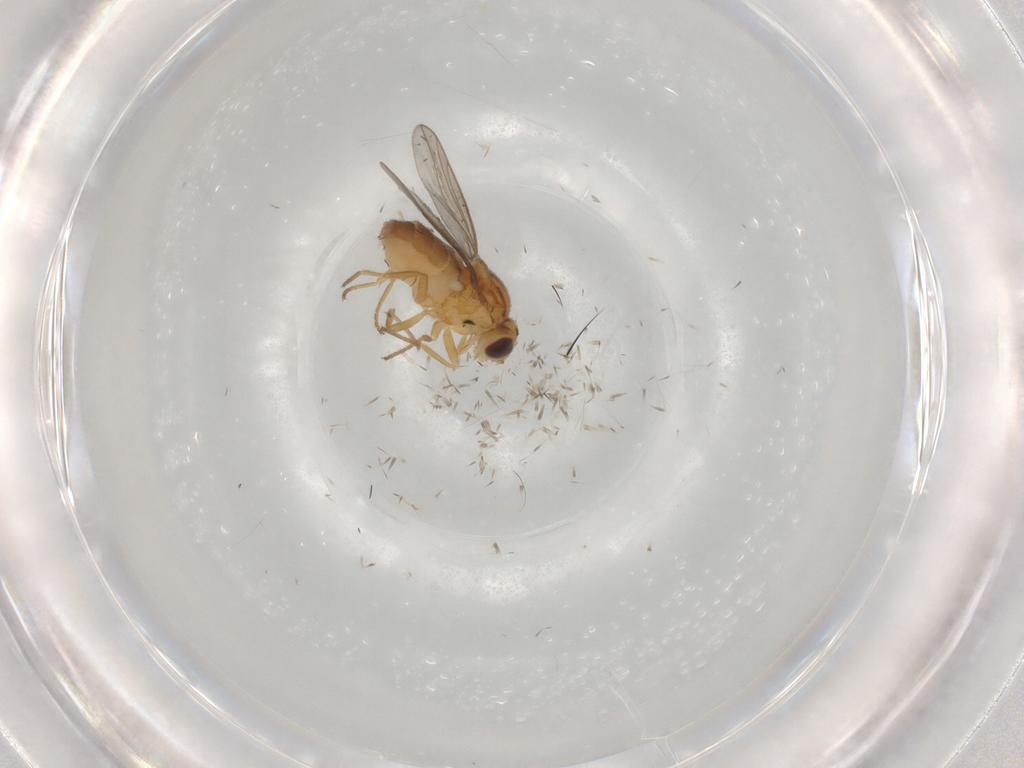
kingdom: Animalia
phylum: Arthropoda
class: Insecta
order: Diptera
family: Chloropidae
